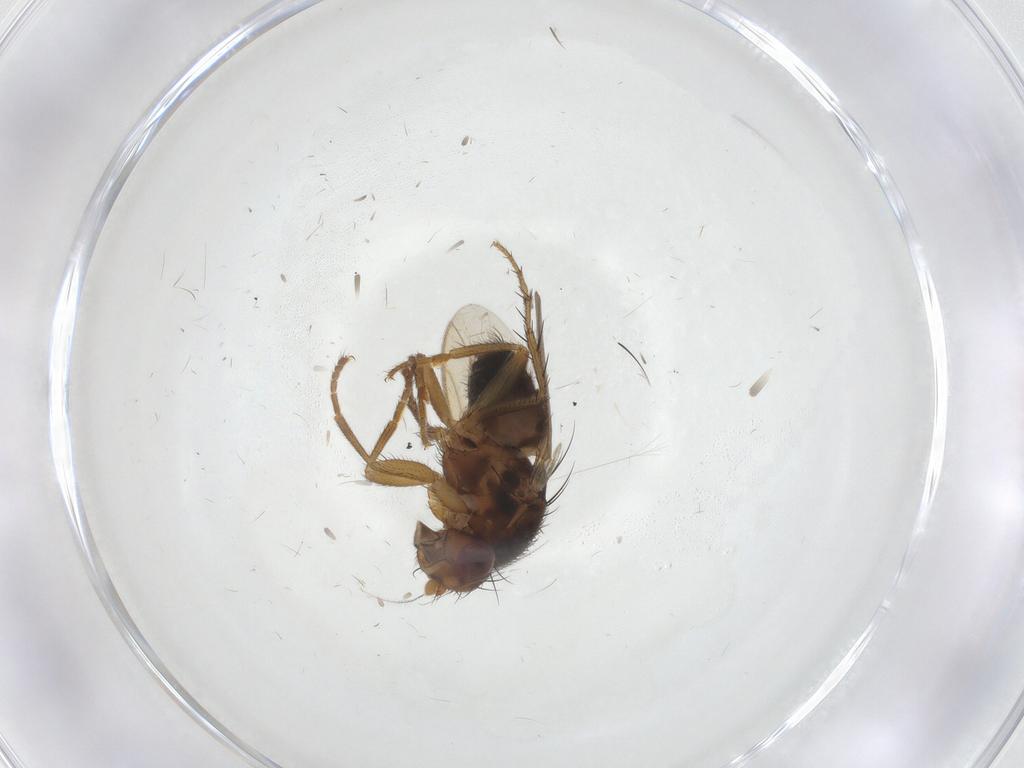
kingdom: Animalia
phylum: Arthropoda
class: Insecta
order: Diptera
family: Sphaeroceridae
